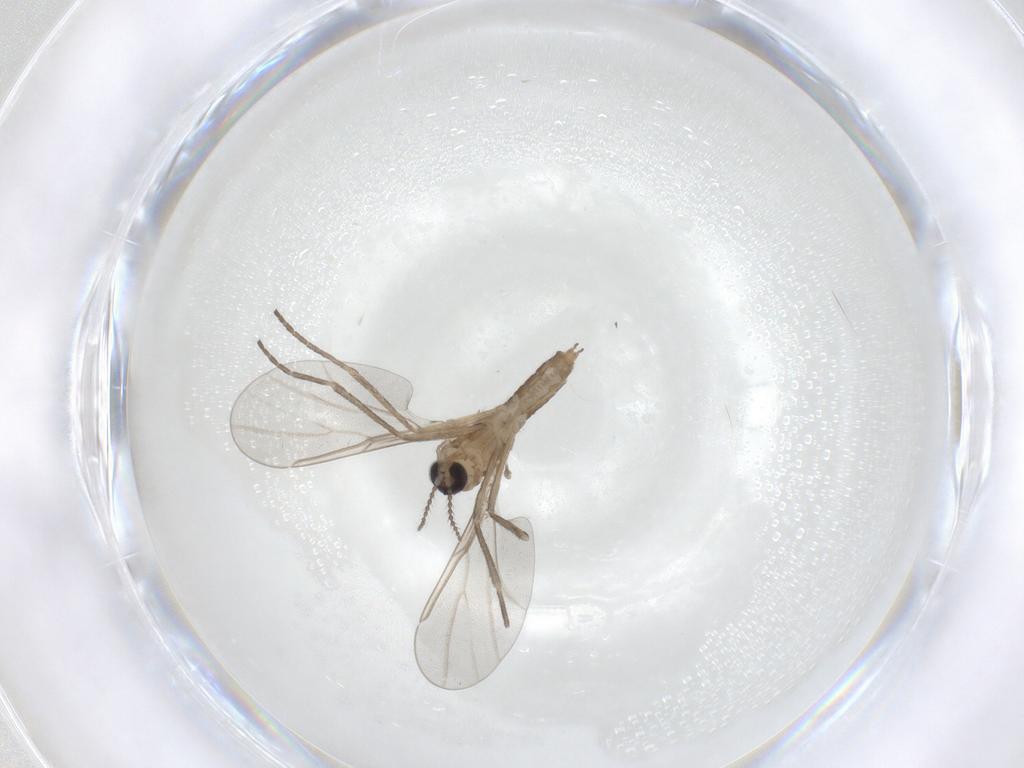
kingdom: Animalia
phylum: Arthropoda
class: Insecta
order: Diptera
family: Cecidomyiidae
